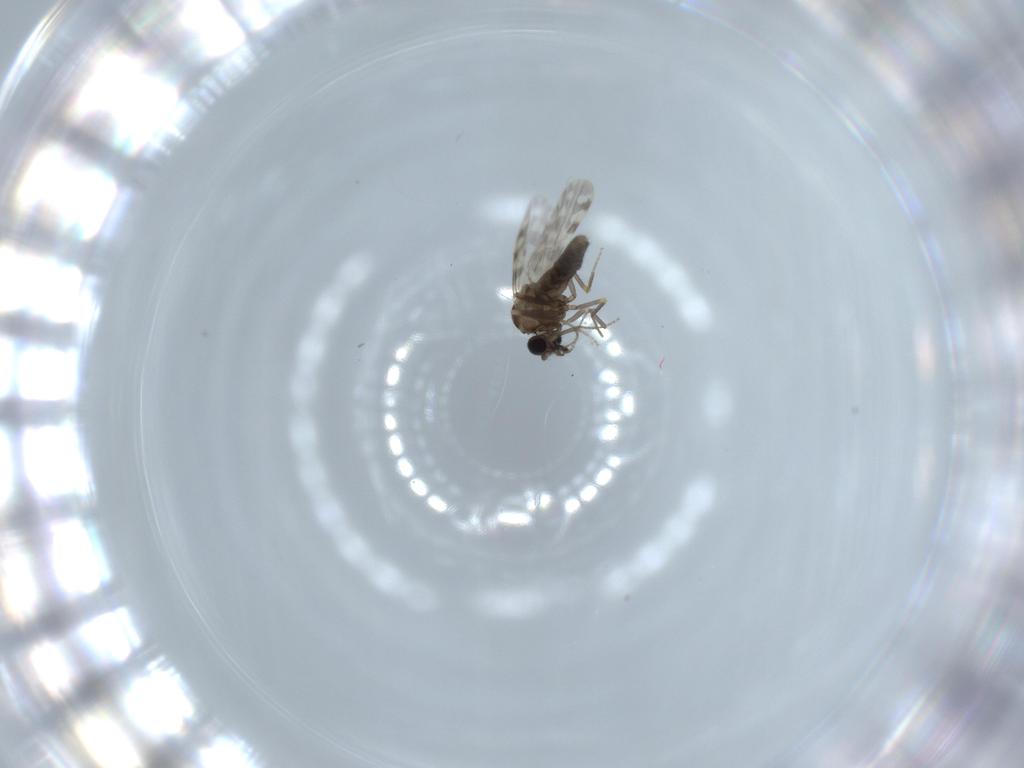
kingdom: Animalia
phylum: Arthropoda
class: Insecta
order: Diptera
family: Ceratopogonidae
